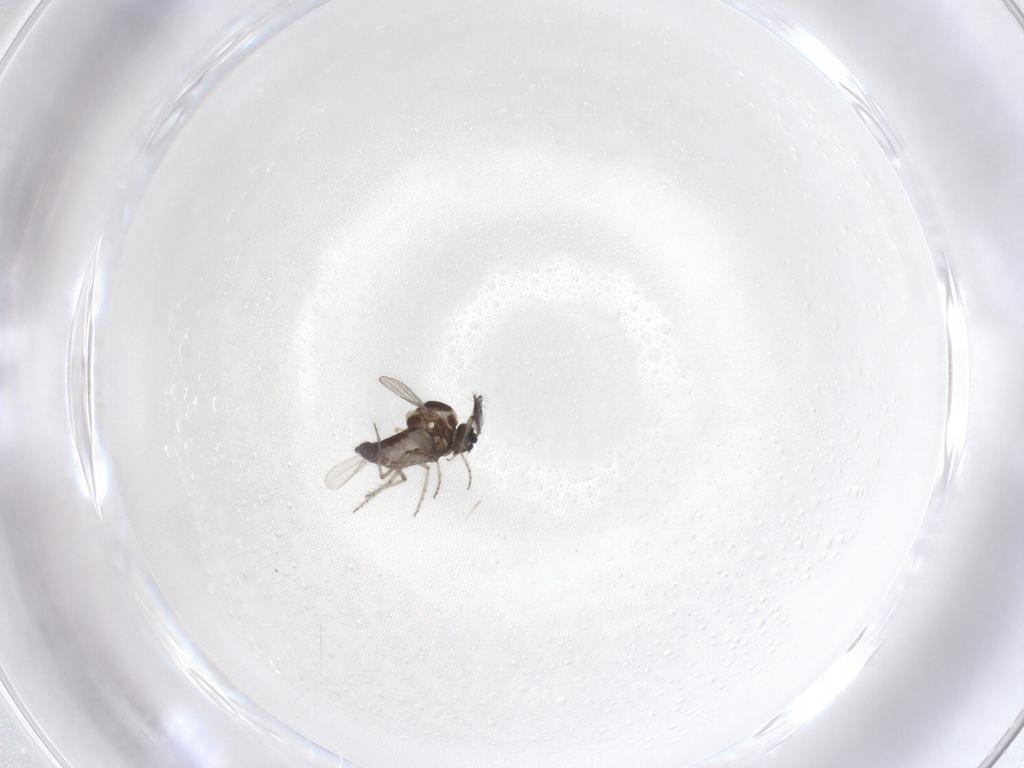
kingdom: Animalia
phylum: Arthropoda
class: Insecta
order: Diptera
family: Ceratopogonidae
